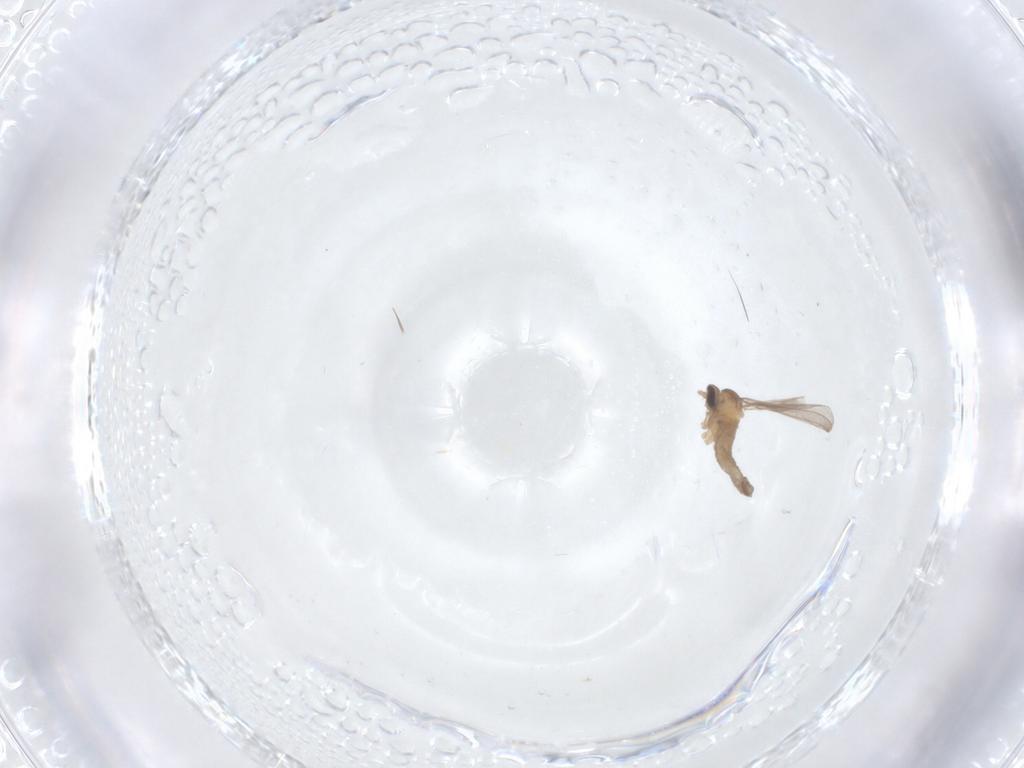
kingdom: Animalia
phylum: Arthropoda
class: Insecta
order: Diptera
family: Cecidomyiidae
